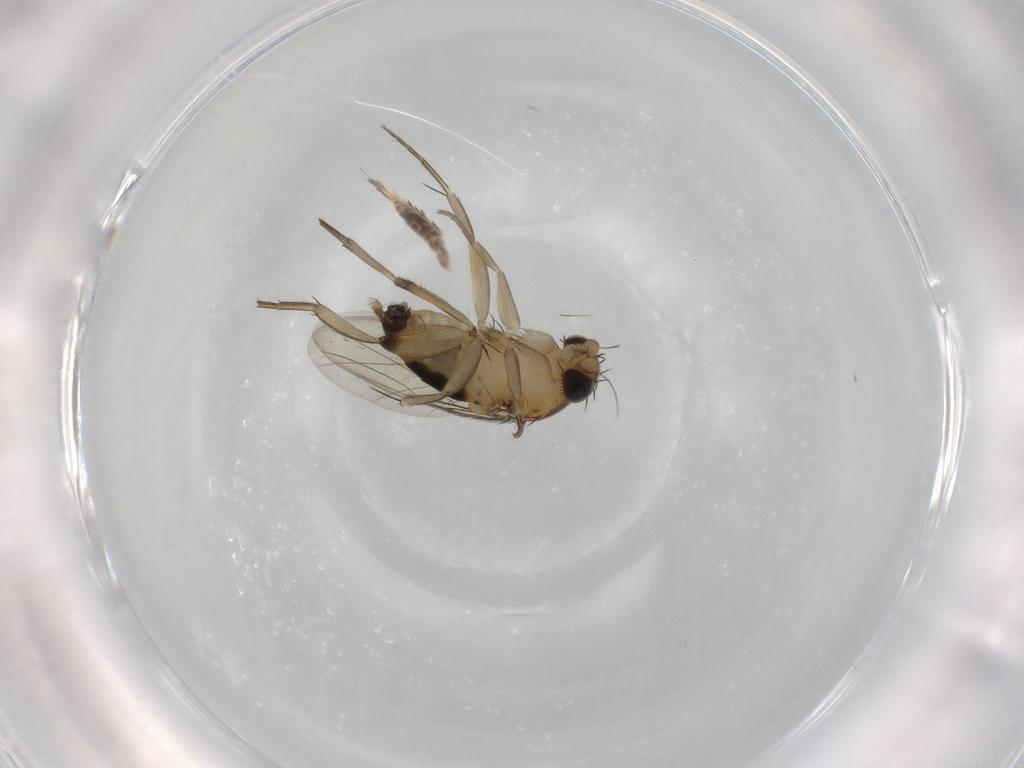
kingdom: Animalia
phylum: Arthropoda
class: Insecta
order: Diptera
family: Phoridae
